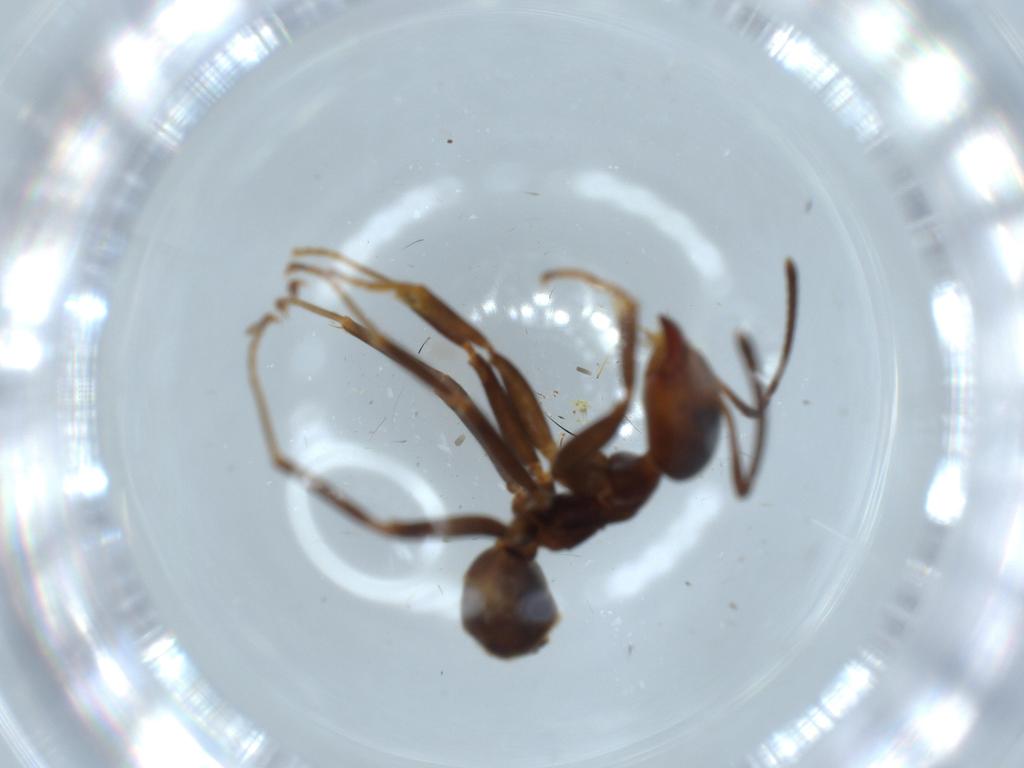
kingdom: Animalia
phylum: Arthropoda
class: Insecta
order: Hymenoptera
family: Formicidae
